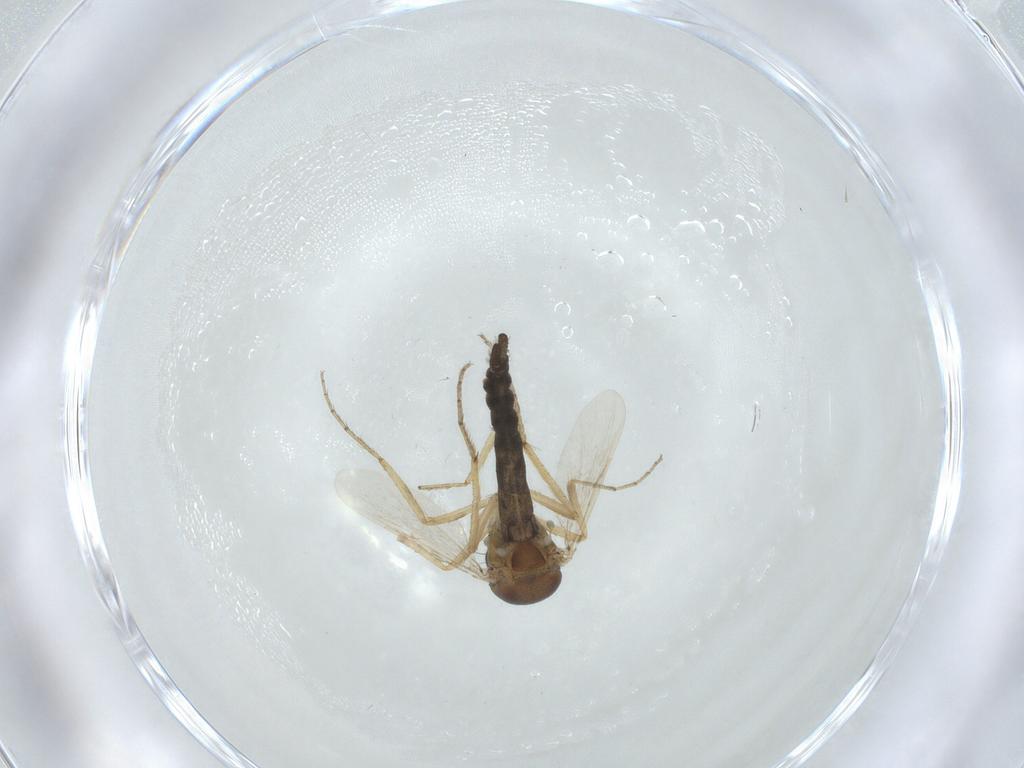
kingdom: Animalia
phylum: Arthropoda
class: Insecta
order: Diptera
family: Ceratopogonidae
